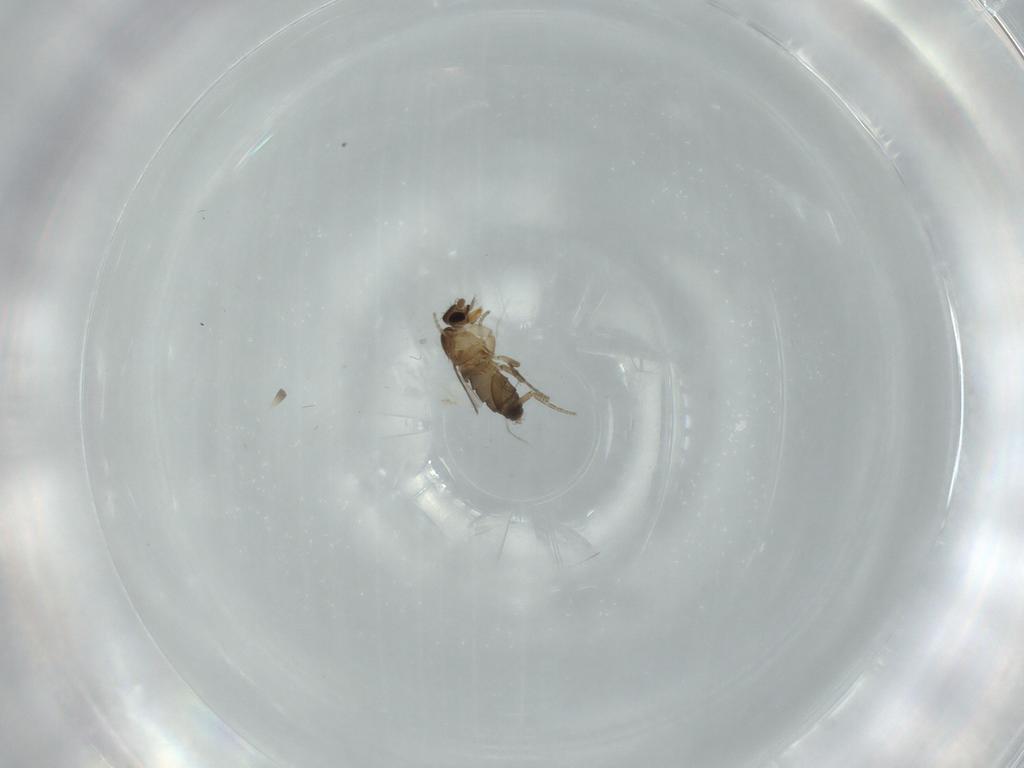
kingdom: Animalia
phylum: Arthropoda
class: Insecta
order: Diptera
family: Phoridae
